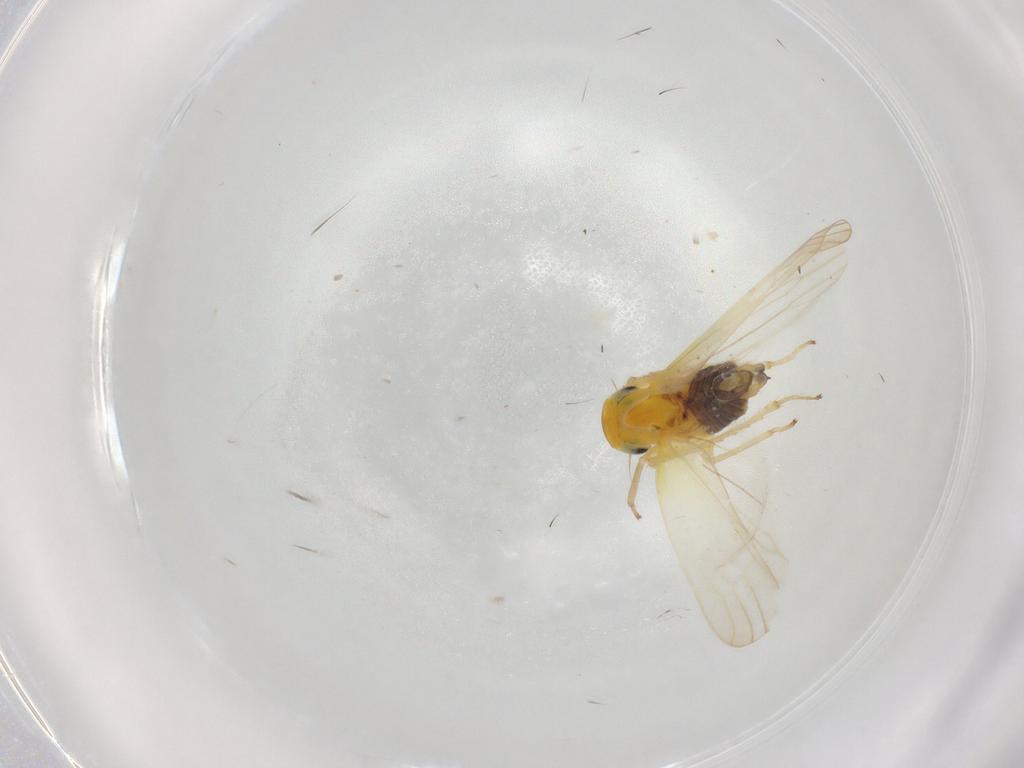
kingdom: Animalia
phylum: Arthropoda
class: Insecta
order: Hemiptera
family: Cicadellidae
